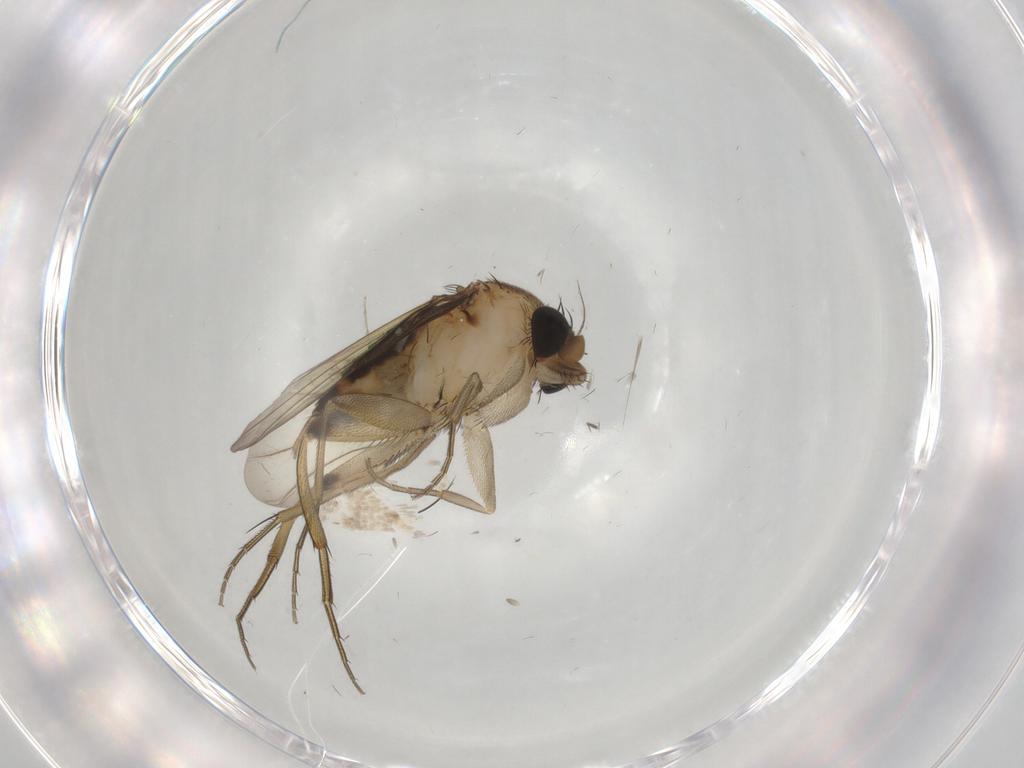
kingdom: Animalia
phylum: Arthropoda
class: Insecta
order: Diptera
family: Phoridae
